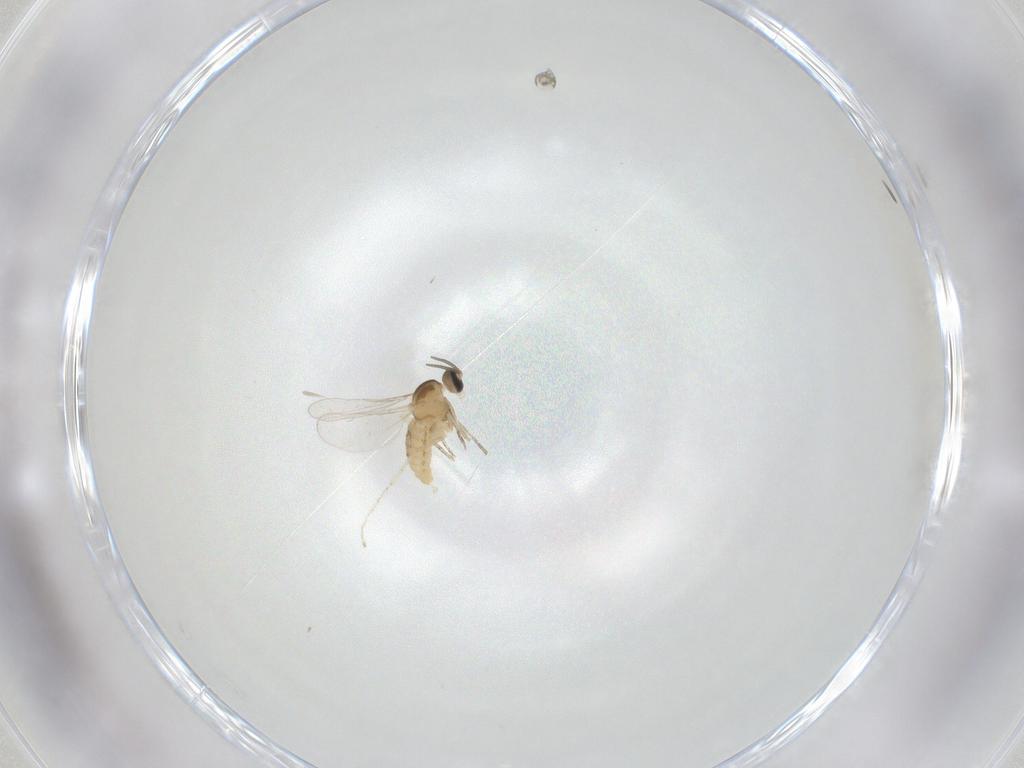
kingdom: Animalia
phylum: Arthropoda
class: Insecta
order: Diptera
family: Cecidomyiidae
